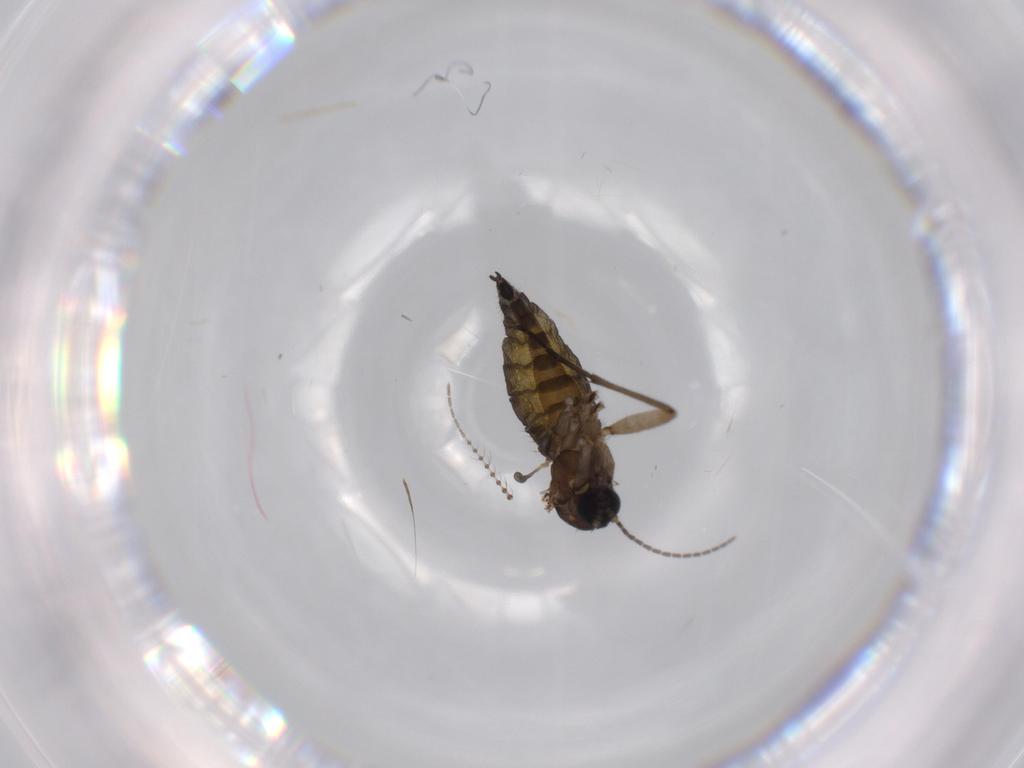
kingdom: Animalia
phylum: Arthropoda
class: Insecta
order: Diptera
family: Sciaridae
